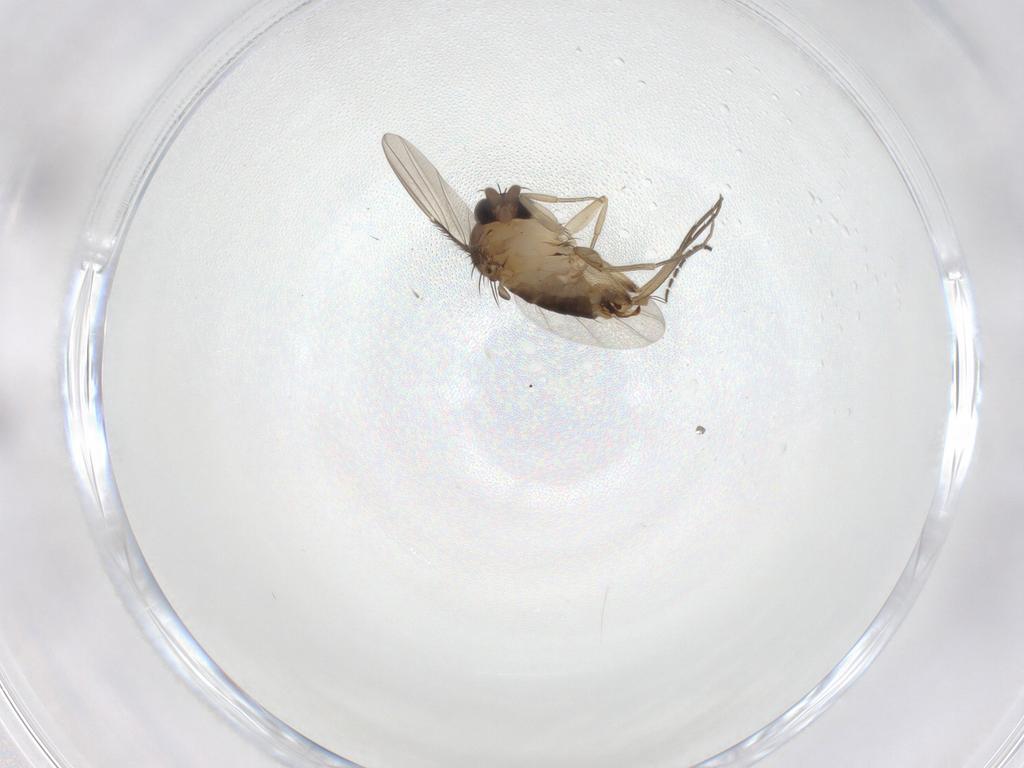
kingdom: Animalia
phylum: Arthropoda
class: Insecta
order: Diptera
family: Phoridae
